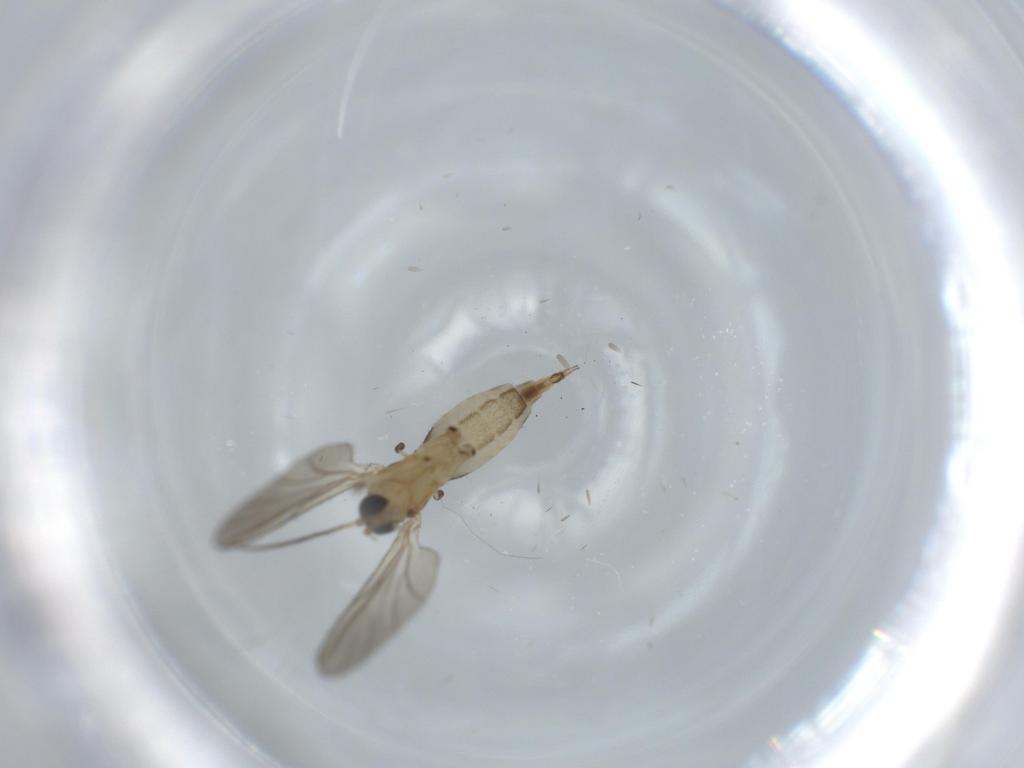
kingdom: Animalia
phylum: Arthropoda
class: Insecta
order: Diptera
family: Sciaridae
